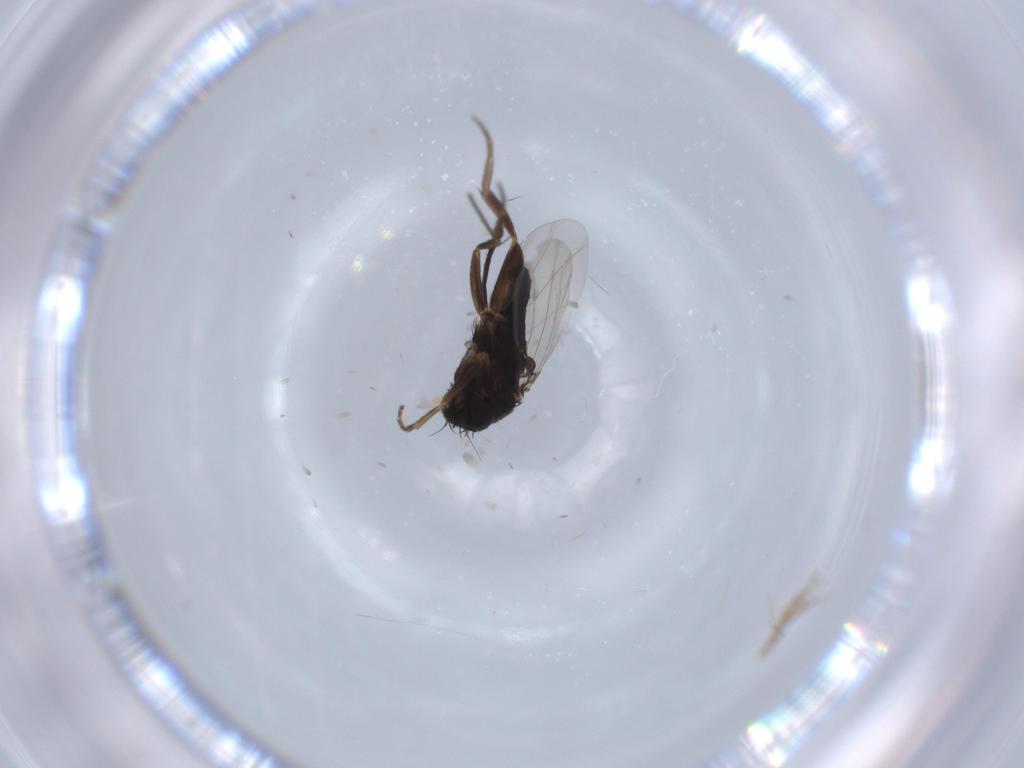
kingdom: Animalia
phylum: Arthropoda
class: Insecta
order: Diptera
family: Phoridae
